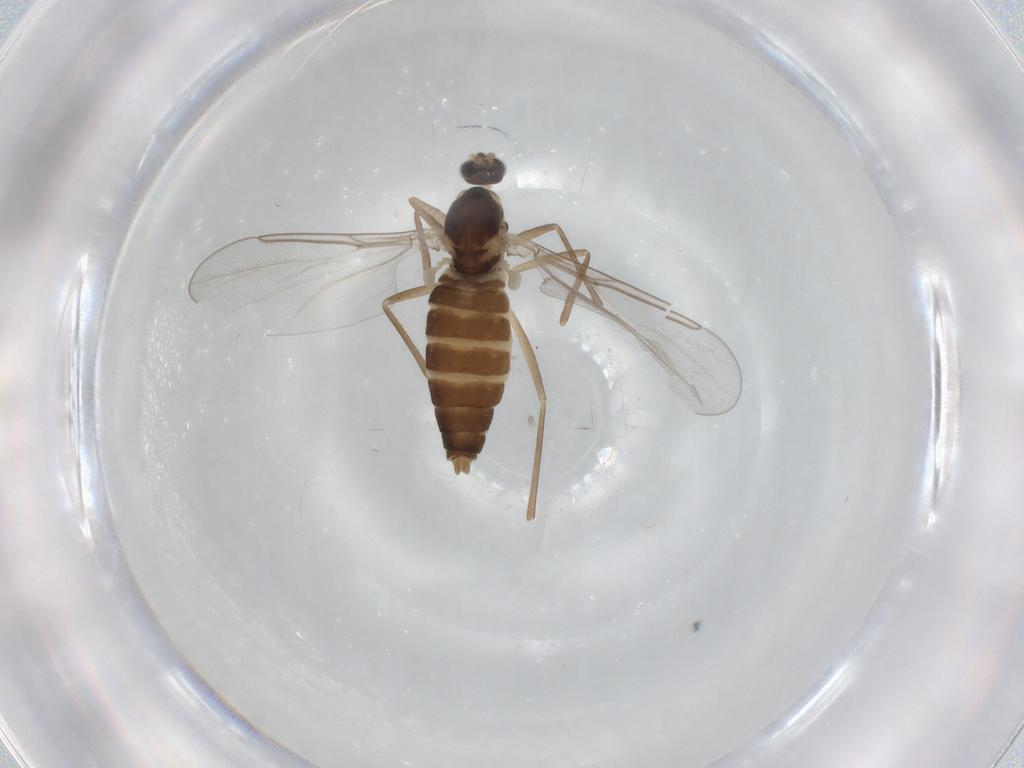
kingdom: Animalia
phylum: Arthropoda
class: Insecta
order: Diptera
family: Cecidomyiidae
